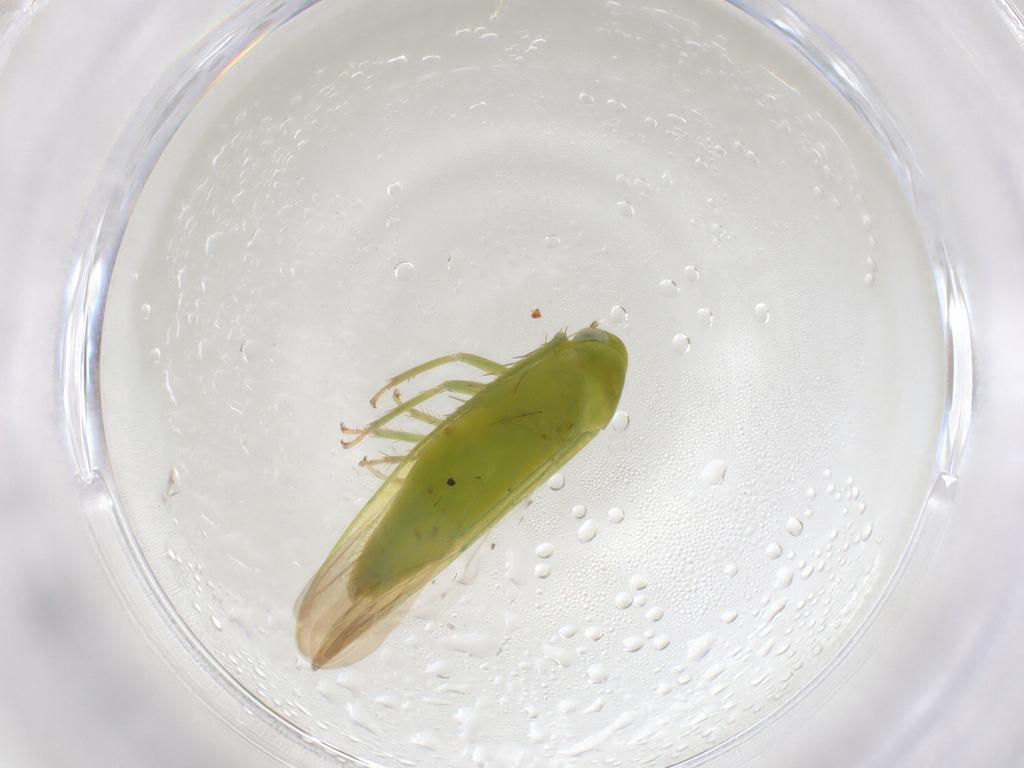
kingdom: Animalia
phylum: Arthropoda
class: Insecta
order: Hemiptera
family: Cicadellidae
